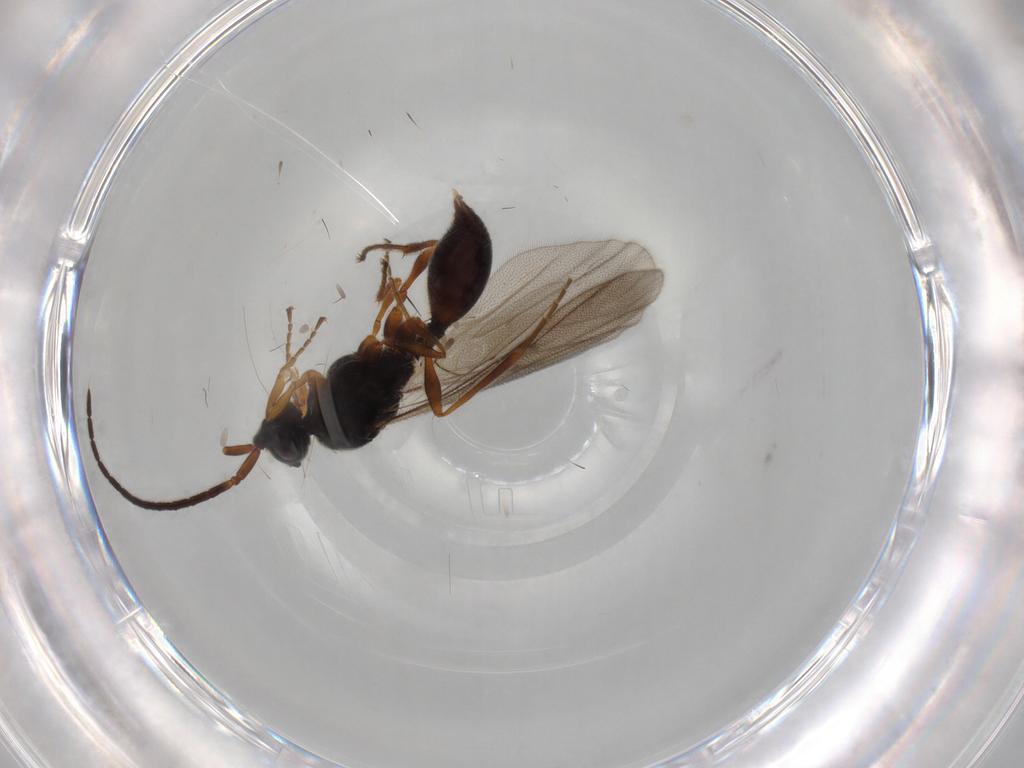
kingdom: Animalia
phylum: Arthropoda
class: Insecta
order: Hymenoptera
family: Diapriidae
